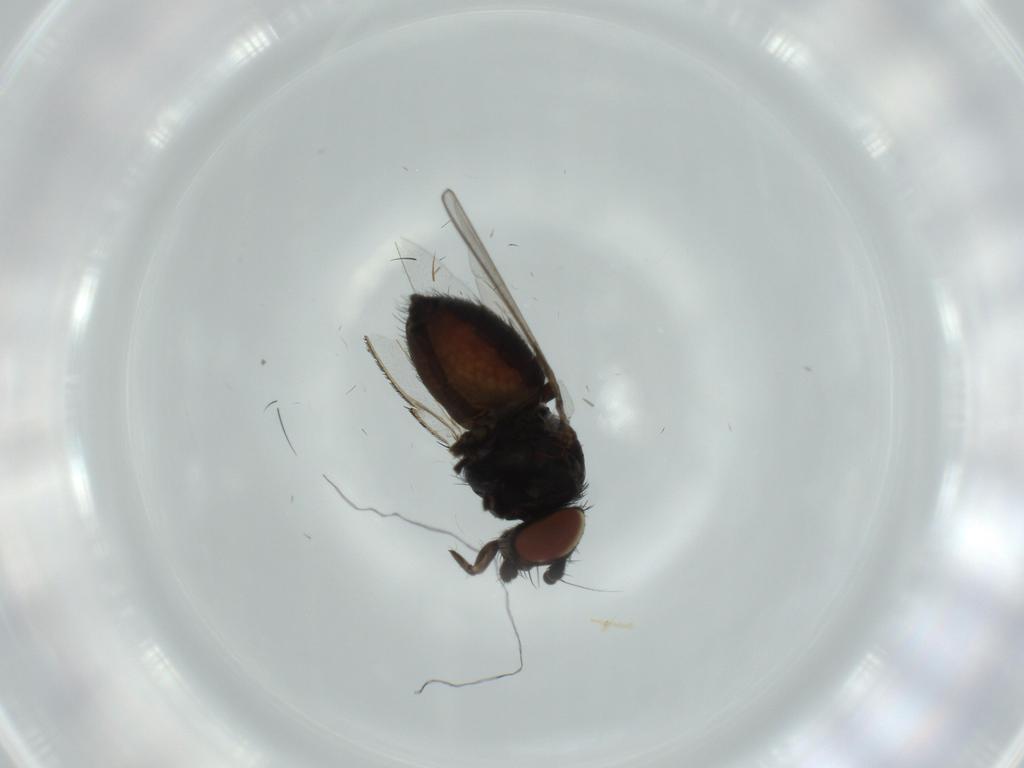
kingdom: Animalia
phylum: Arthropoda
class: Insecta
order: Diptera
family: Milichiidae
